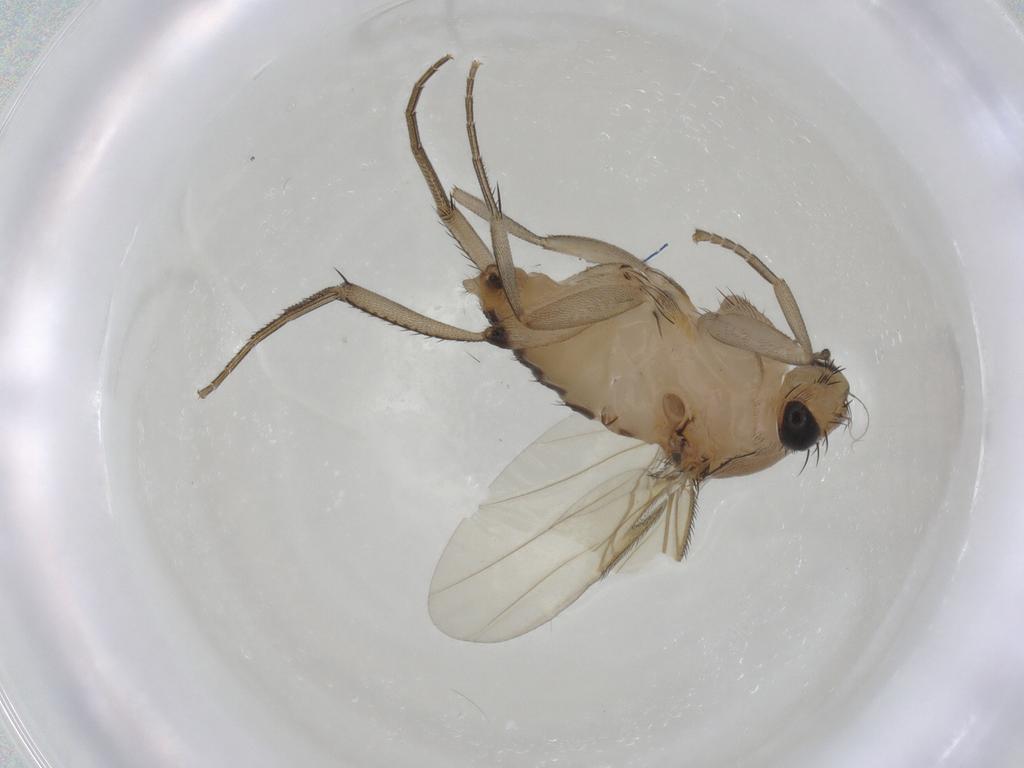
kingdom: Animalia
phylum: Arthropoda
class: Insecta
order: Diptera
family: Phoridae
